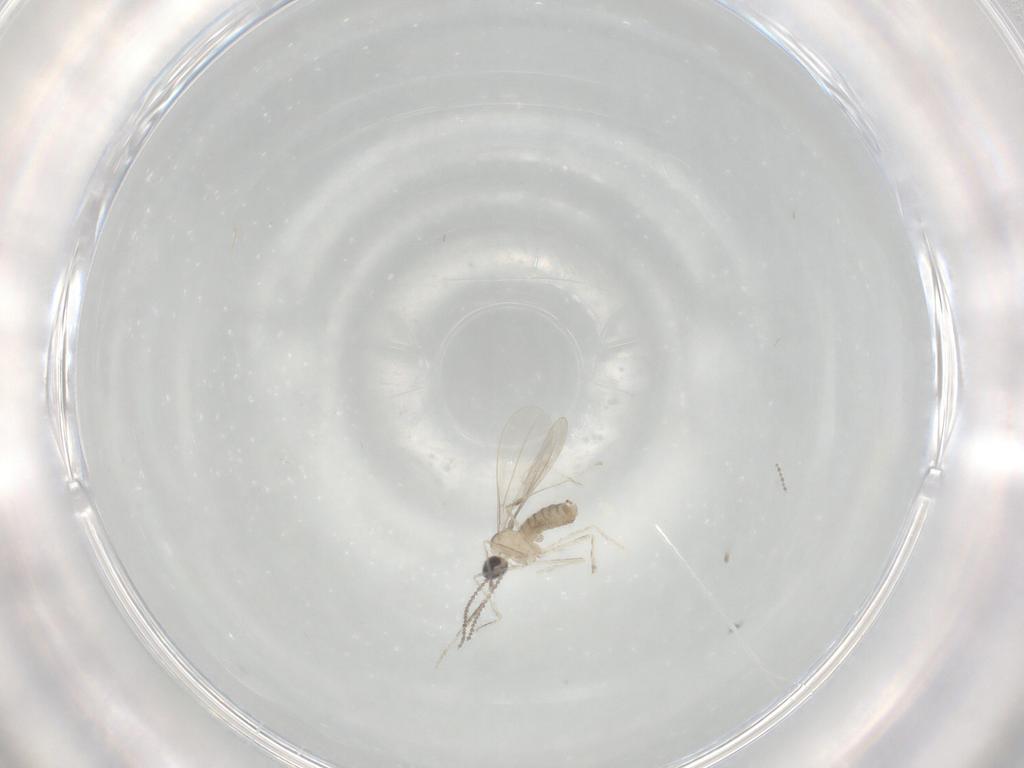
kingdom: Animalia
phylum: Arthropoda
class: Insecta
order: Diptera
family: Cecidomyiidae
